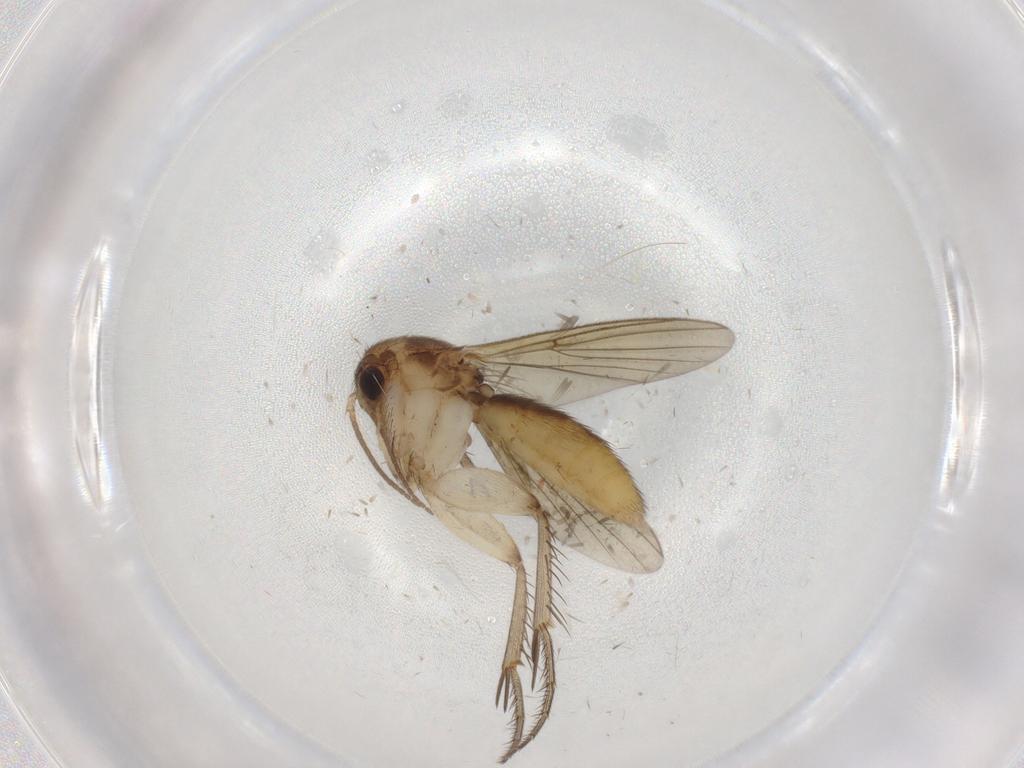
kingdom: Animalia
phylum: Arthropoda
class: Insecta
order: Diptera
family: Mycetophilidae
